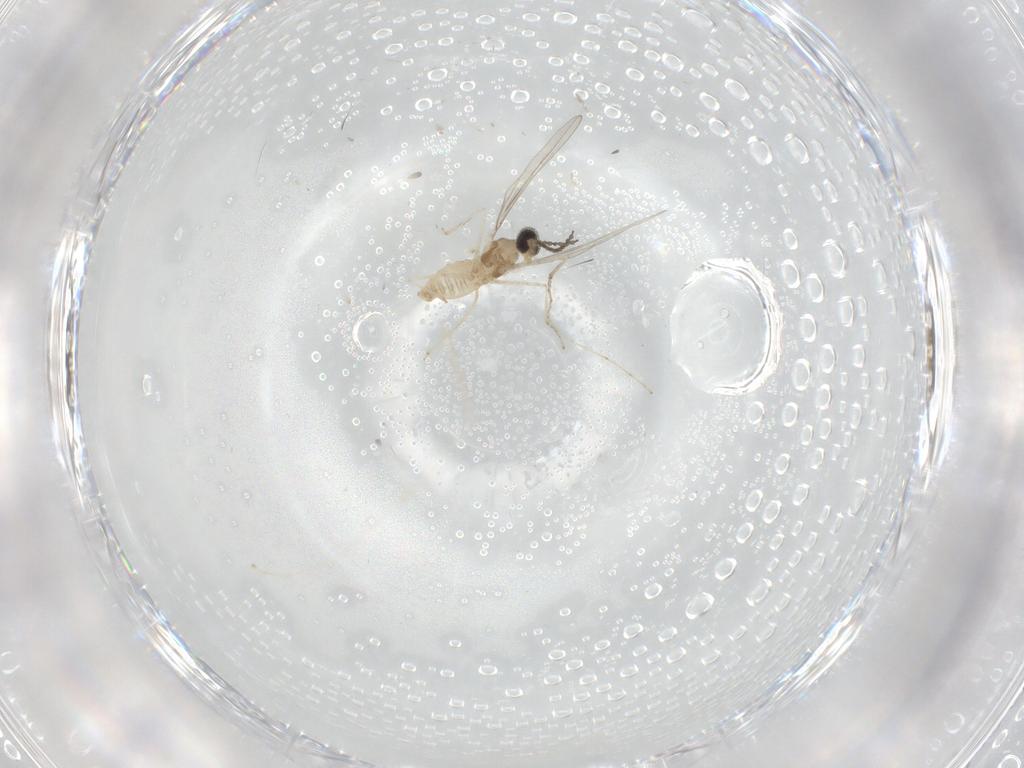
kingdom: Animalia
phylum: Arthropoda
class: Insecta
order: Diptera
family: Cecidomyiidae
